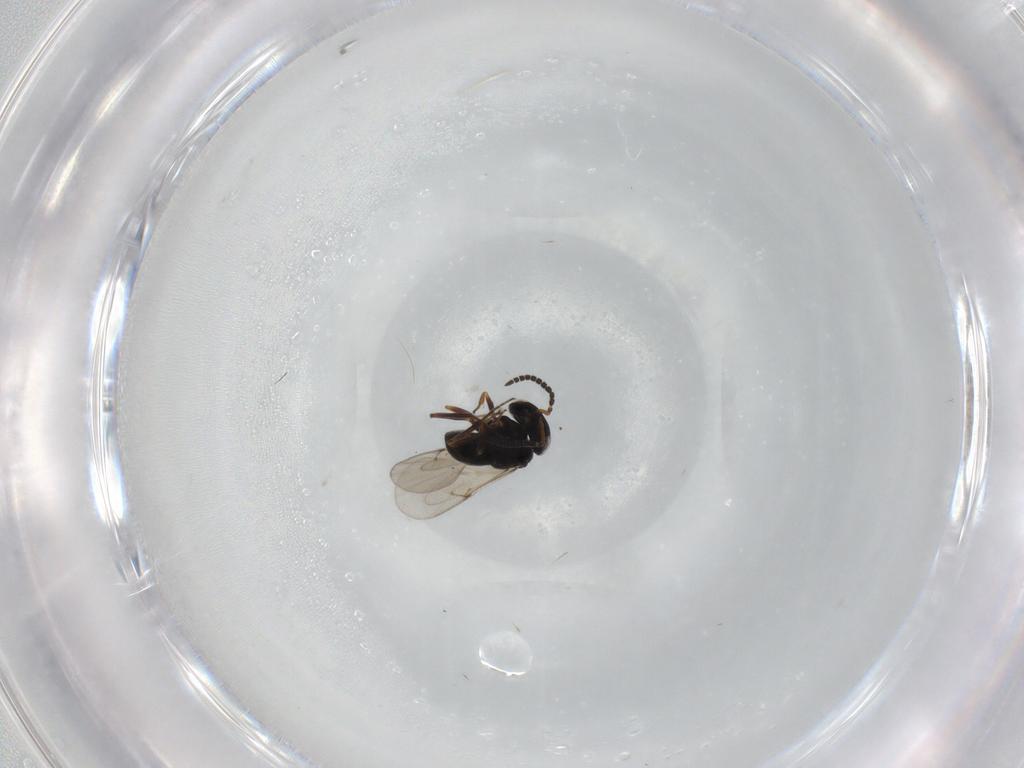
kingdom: Animalia
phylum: Arthropoda
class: Insecta
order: Hymenoptera
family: Scelionidae
